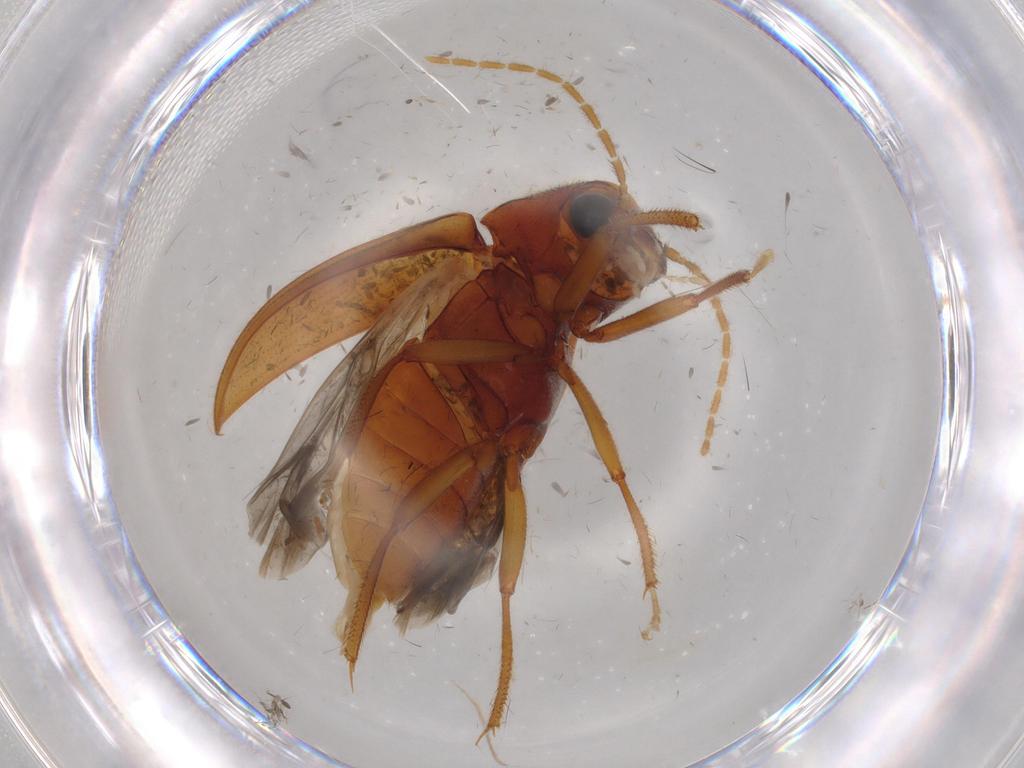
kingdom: Animalia
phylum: Arthropoda
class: Insecta
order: Coleoptera
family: Ptilodactylidae
